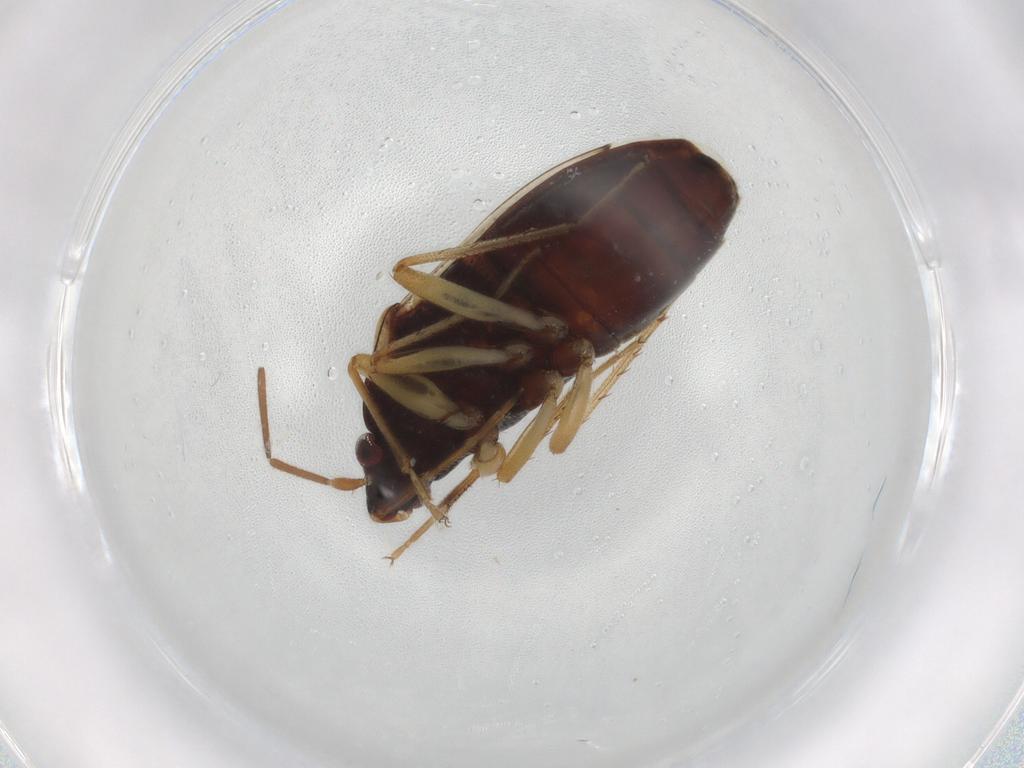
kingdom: Animalia
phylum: Arthropoda
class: Insecta
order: Hemiptera
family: Rhyparochromidae
